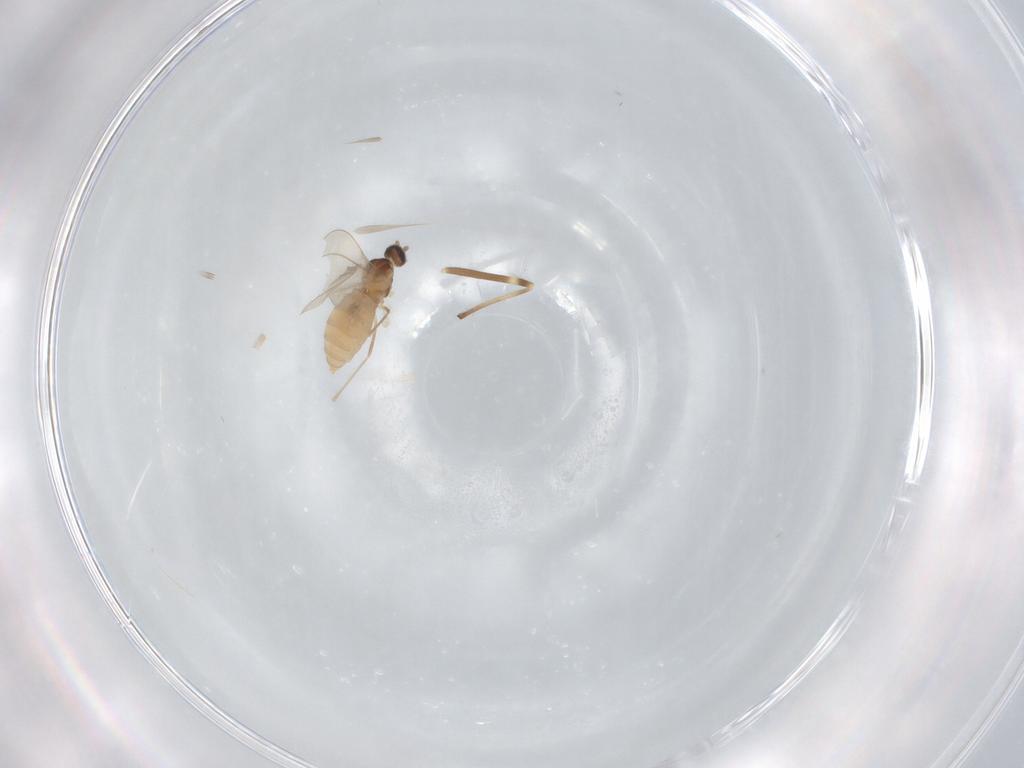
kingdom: Animalia
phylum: Arthropoda
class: Insecta
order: Diptera
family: Cecidomyiidae
